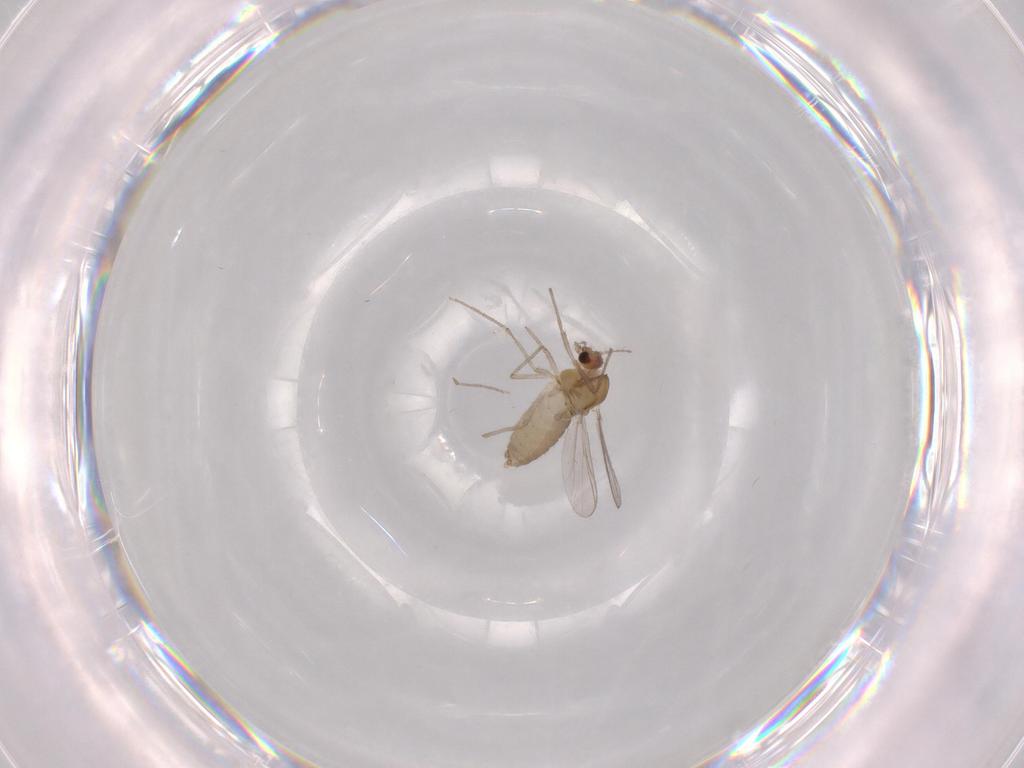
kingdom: Animalia
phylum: Arthropoda
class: Insecta
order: Diptera
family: Chironomidae
